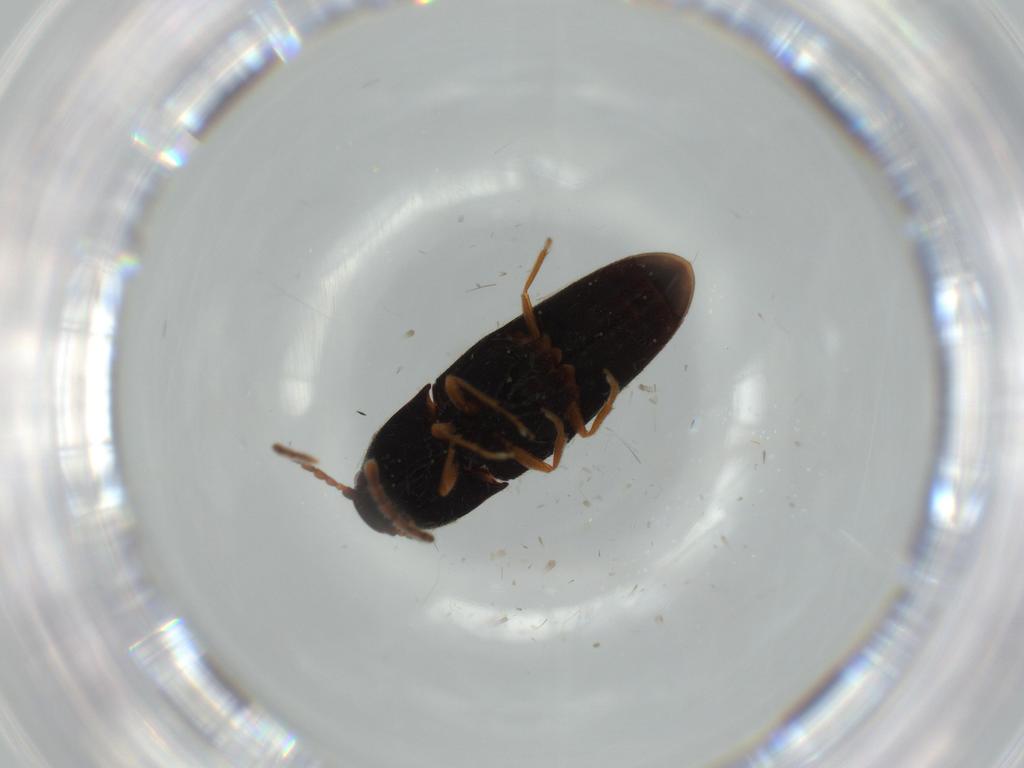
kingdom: Animalia
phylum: Arthropoda
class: Insecta
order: Coleoptera
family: Elateridae
